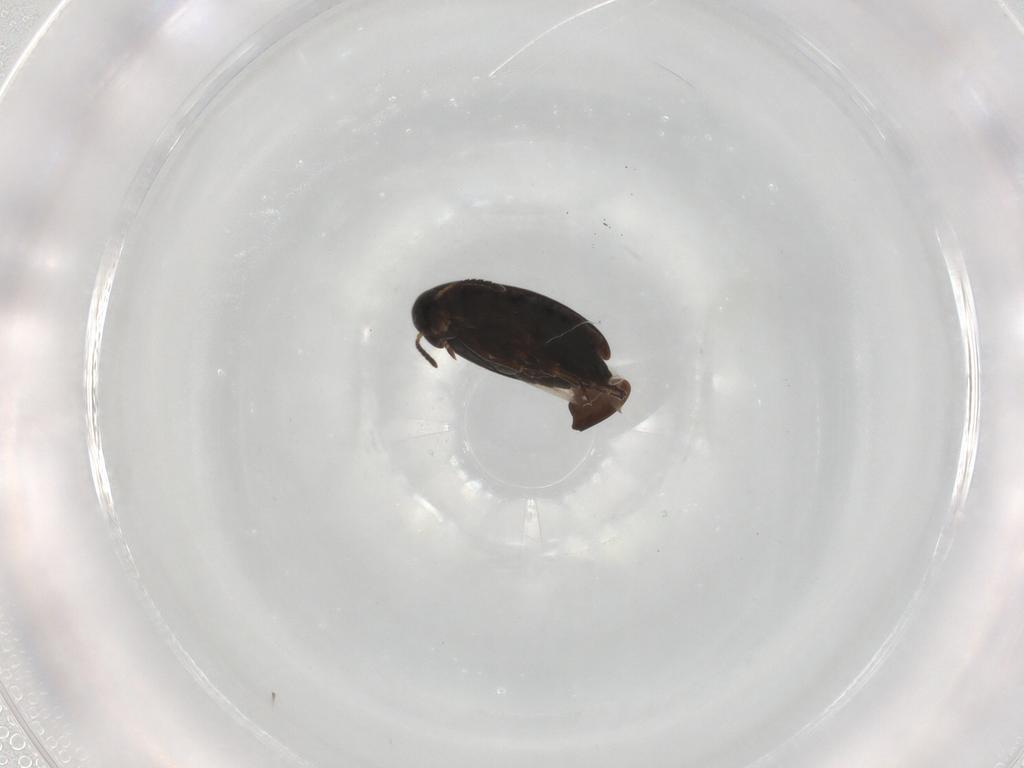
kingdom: Animalia
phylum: Arthropoda
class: Insecta
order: Coleoptera
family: Scraptiidae
